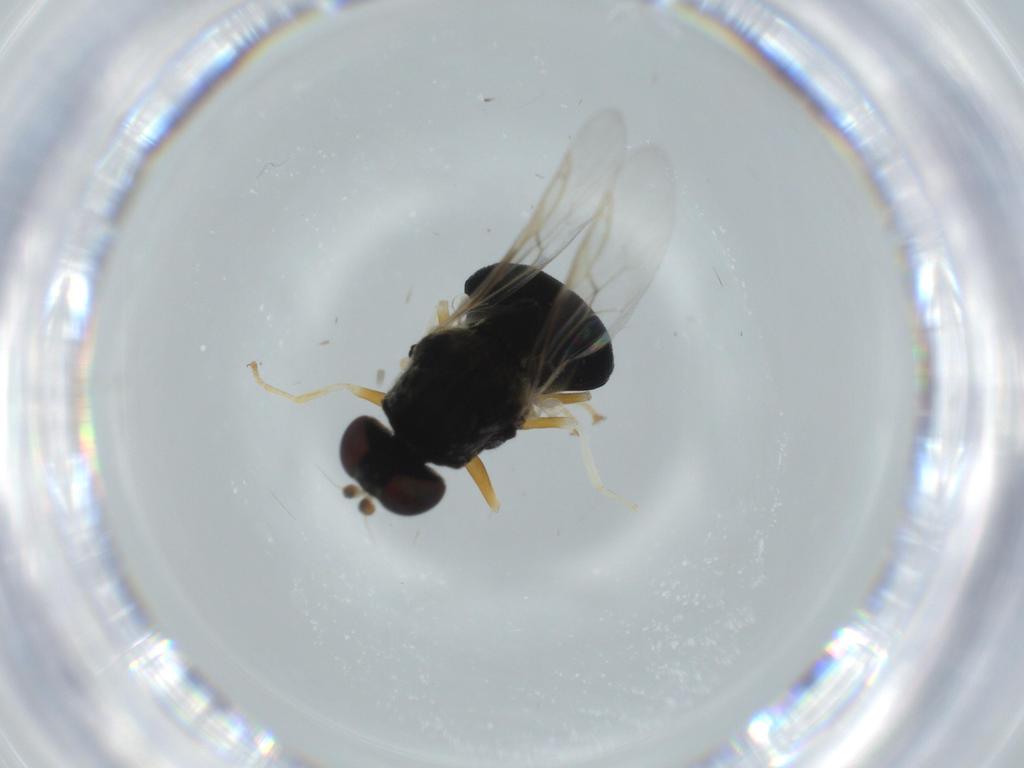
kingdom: Animalia
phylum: Arthropoda
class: Insecta
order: Diptera
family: Stratiomyidae
